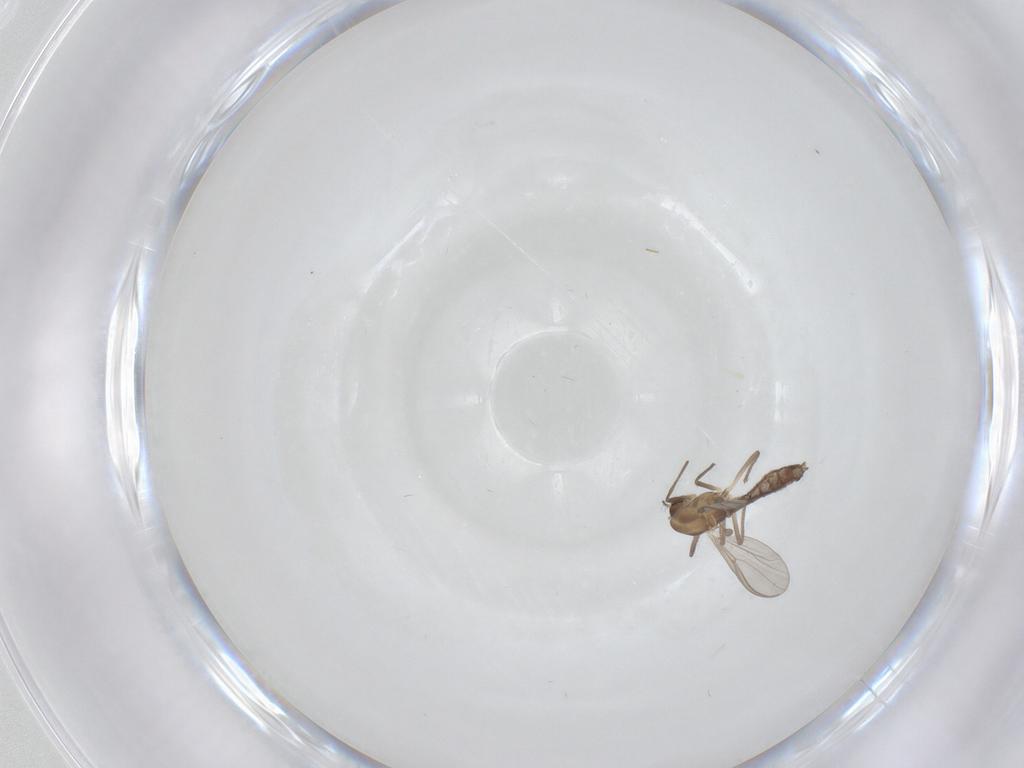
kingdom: Animalia
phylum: Arthropoda
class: Insecta
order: Diptera
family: Chironomidae
